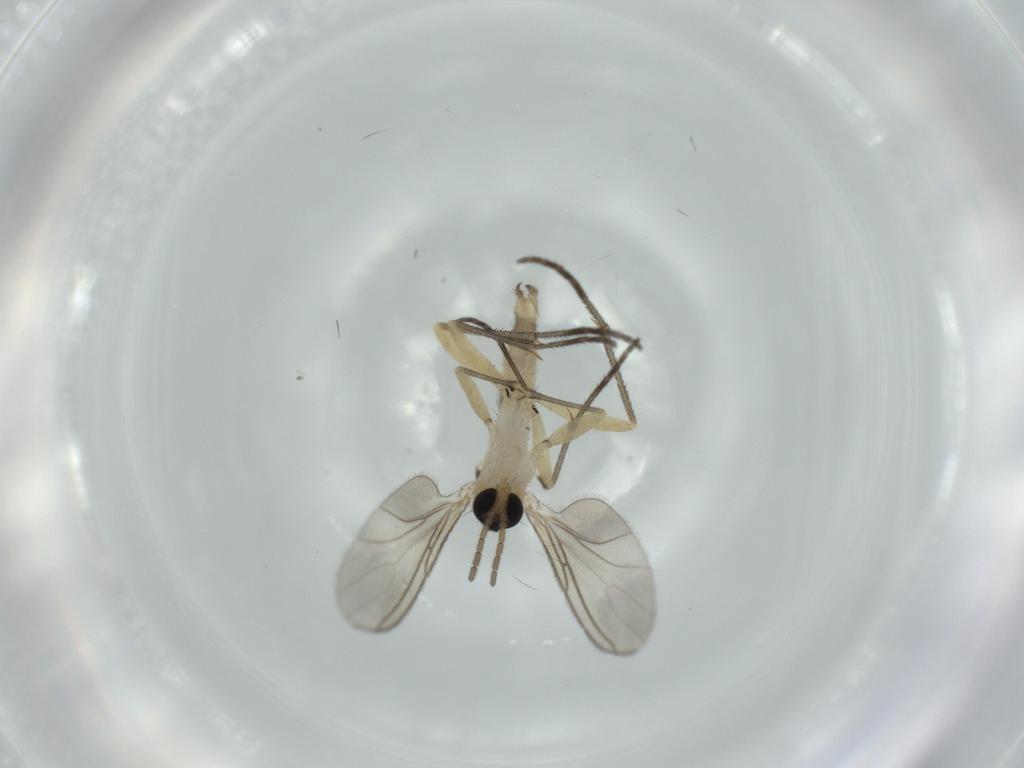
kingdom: Animalia
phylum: Arthropoda
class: Insecta
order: Diptera
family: Sciaridae
